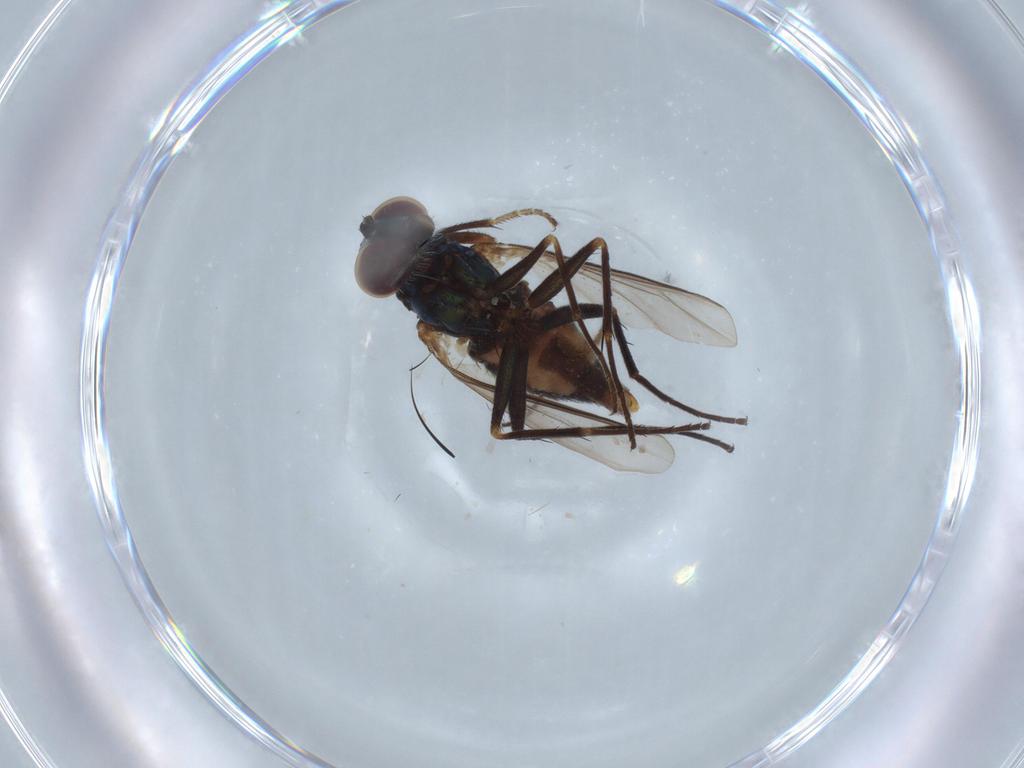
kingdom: Animalia
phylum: Arthropoda
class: Insecta
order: Diptera
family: Dolichopodidae
